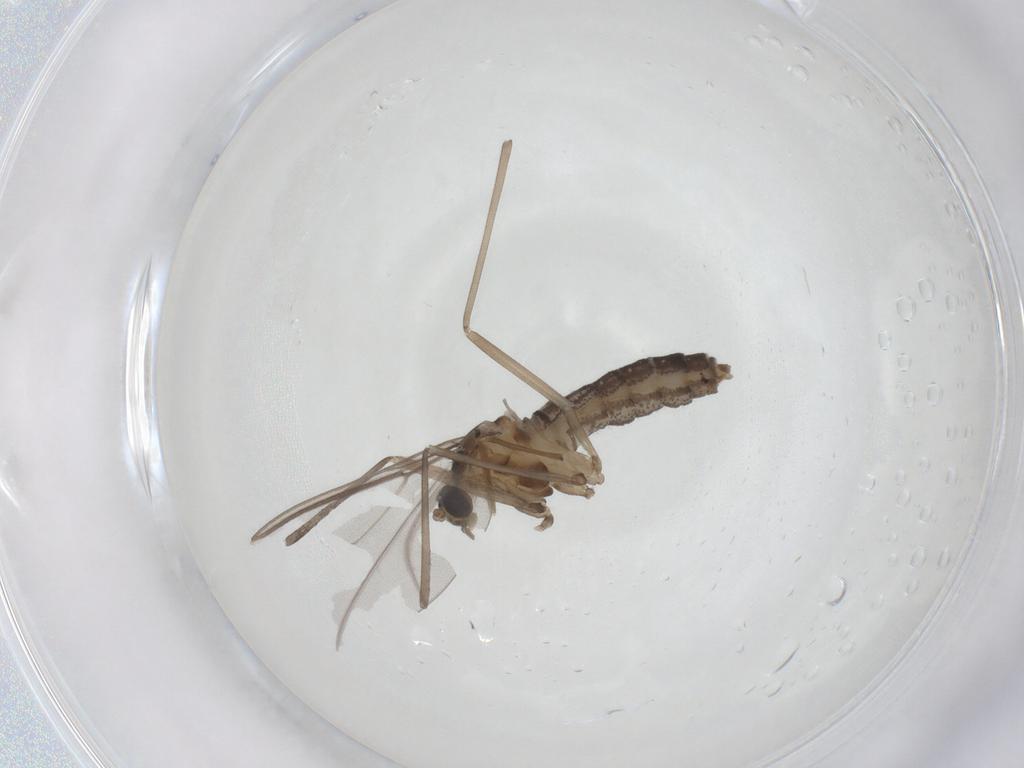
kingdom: Animalia
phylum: Arthropoda
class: Insecta
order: Diptera
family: Cecidomyiidae
